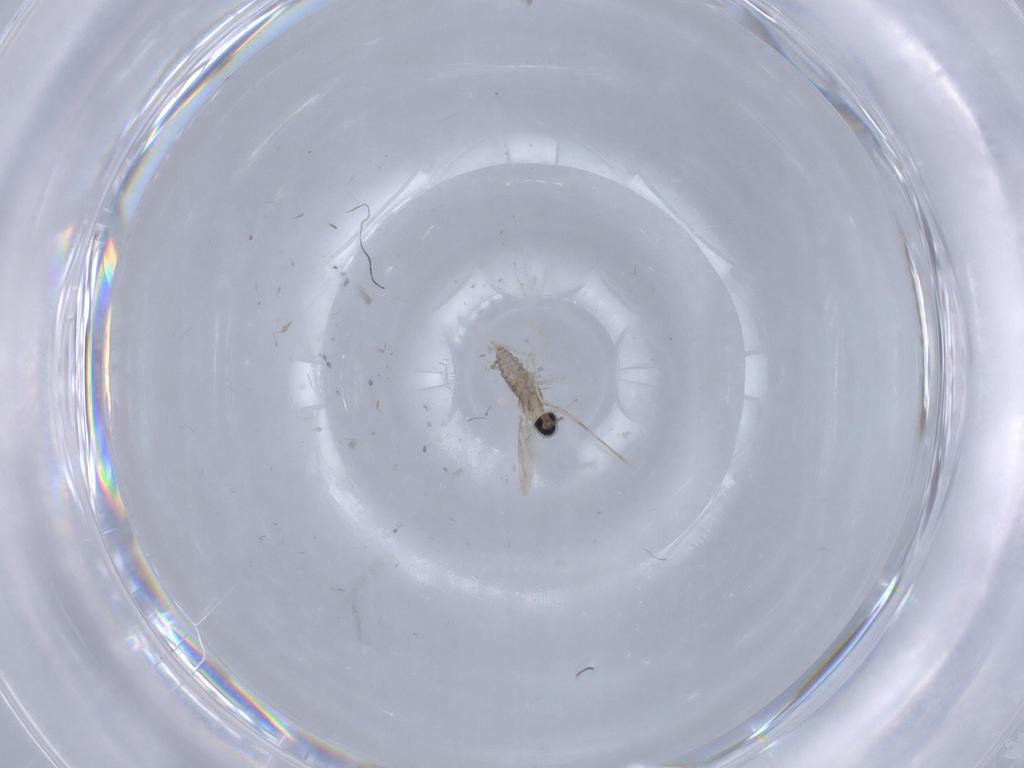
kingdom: Animalia
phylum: Arthropoda
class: Insecta
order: Diptera
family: Cecidomyiidae
